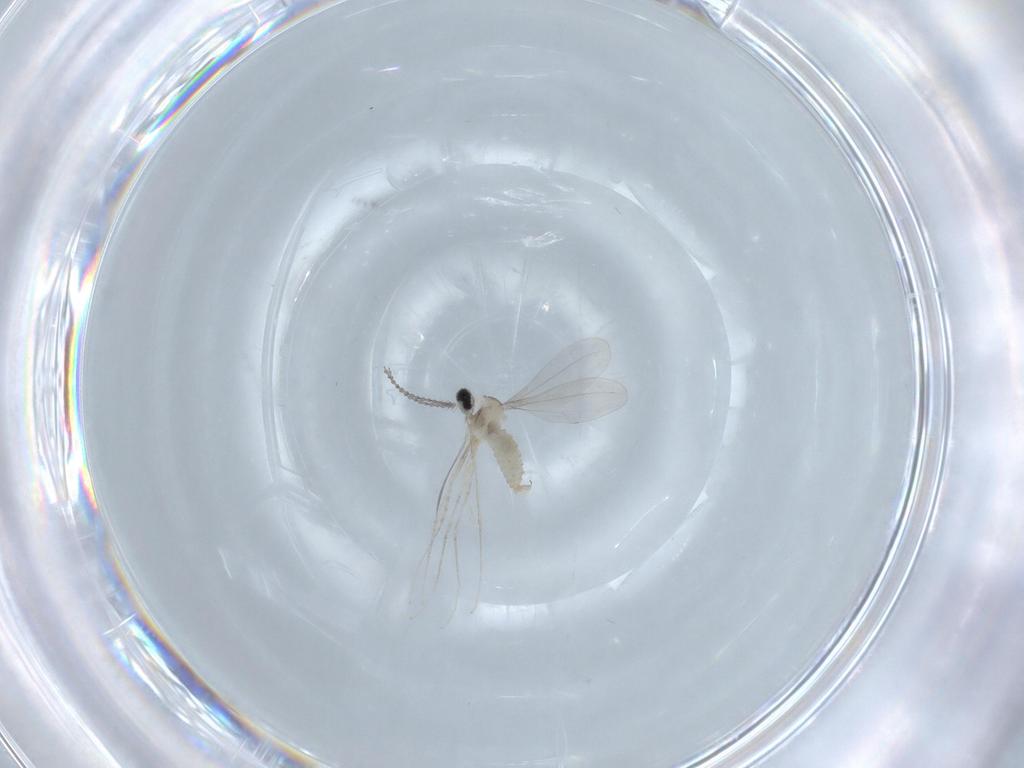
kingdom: Animalia
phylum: Arthropoda
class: Insecta
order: Diptera
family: Cecidomyiidae
